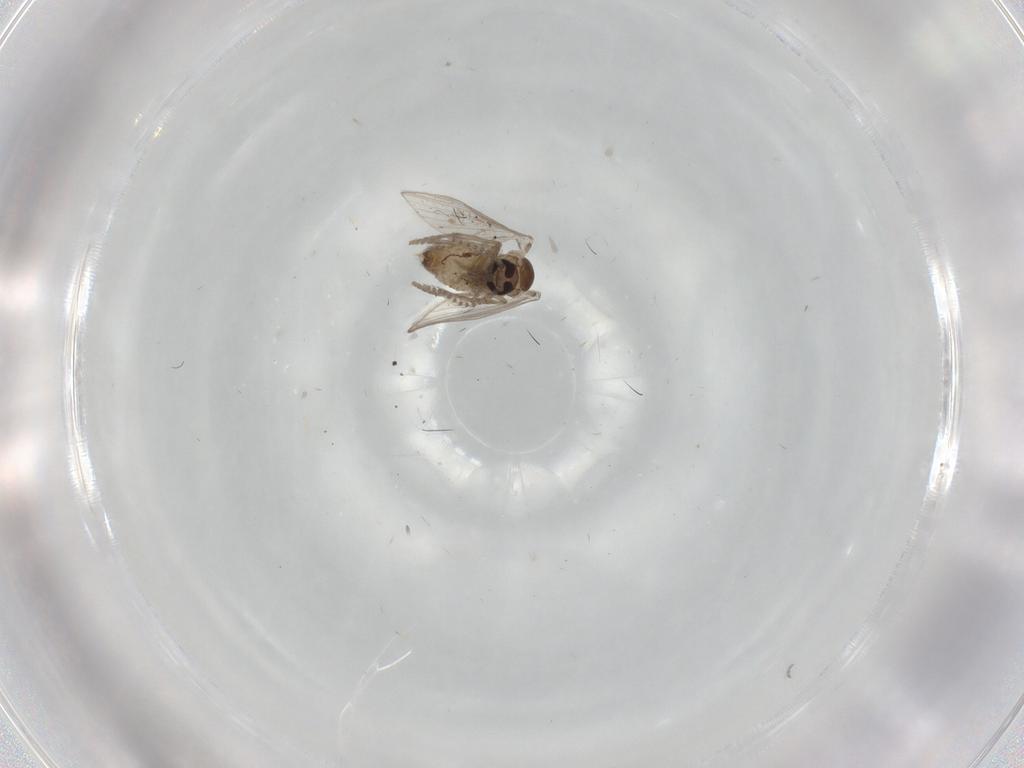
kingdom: Animalia
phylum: Arthropoda
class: Insecta
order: Diptera
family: Psychodidae
